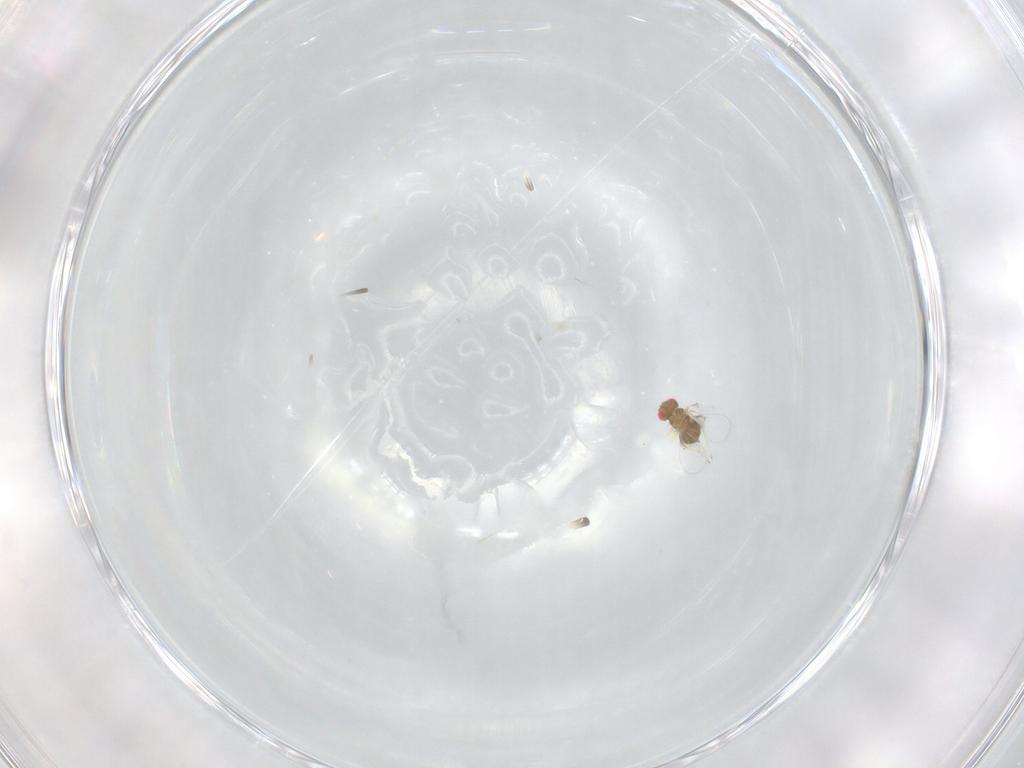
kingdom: Animalia
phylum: Arthropoda
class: Insecta
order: Hymenoptera
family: Trichogrammatidae
